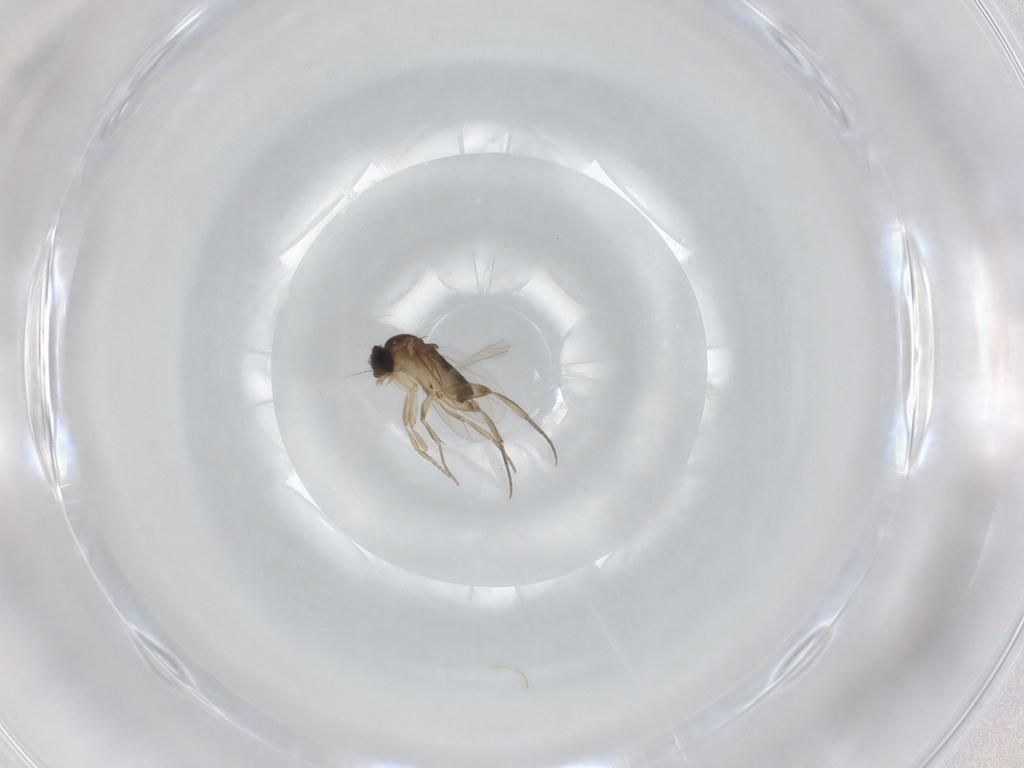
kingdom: Animalia
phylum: Arthropoda
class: Insecta
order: Diptera
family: Phoridae
